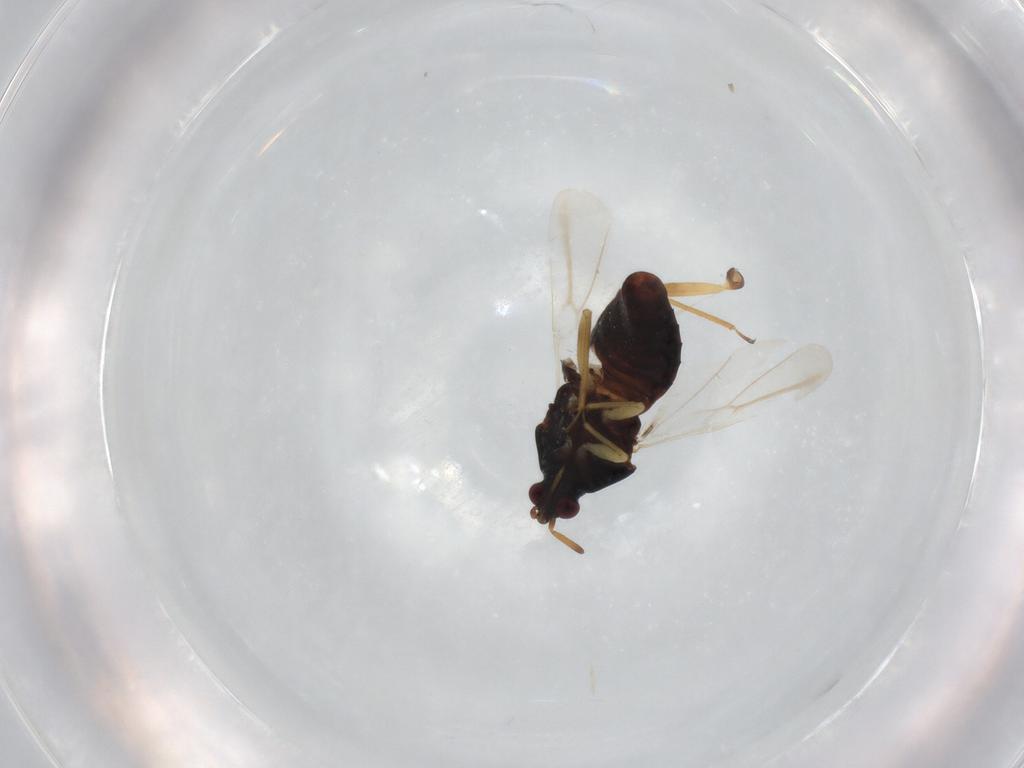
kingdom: Animalia
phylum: Arthropoda
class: Insecta
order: Hemiptera
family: Anthocoridae
